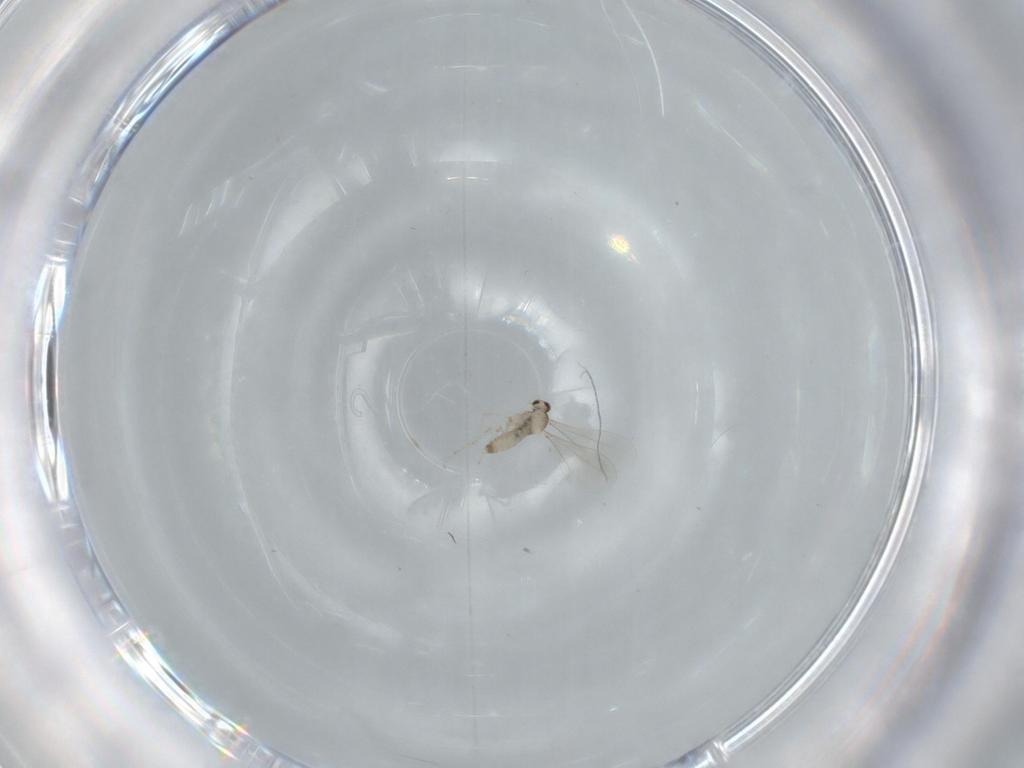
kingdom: Animalia
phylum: Arthropoda
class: Insecta
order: Diptera
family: Cecidomyiidae
